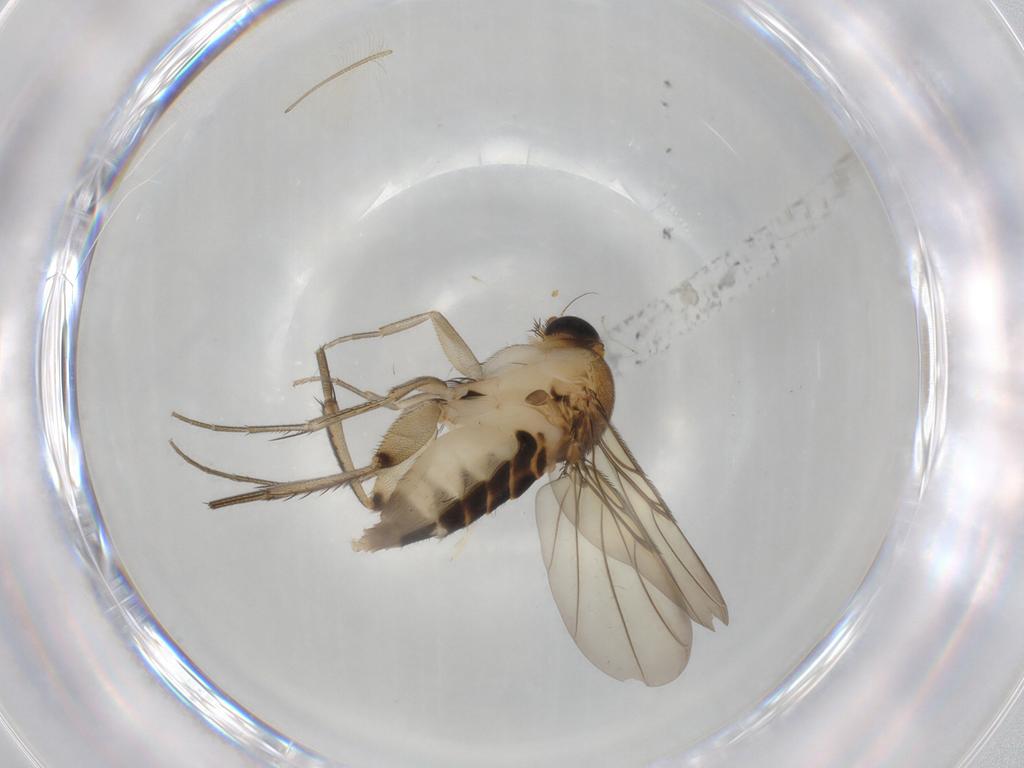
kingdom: Animalia
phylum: Arthropoda
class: Insecta
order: Diptera
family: Phoridae
